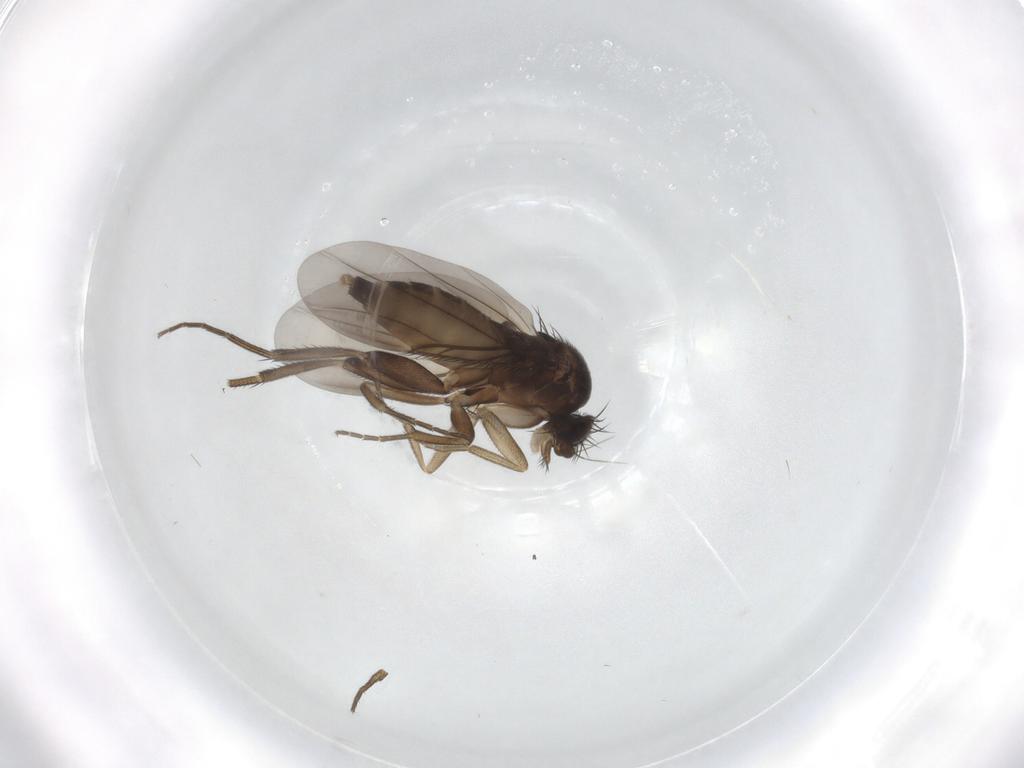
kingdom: Animalia
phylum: Arthropoda
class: Insecta
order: Diptera
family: Phoridae
